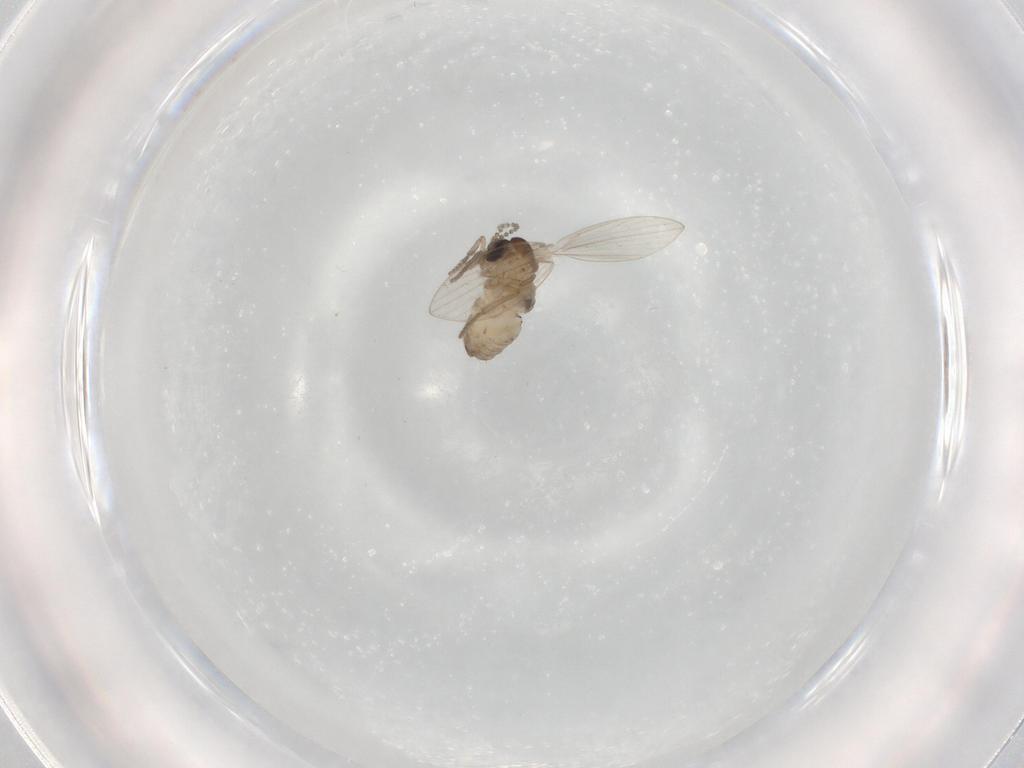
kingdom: Animalia
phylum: Arthropoda
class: Insecta
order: Diptera
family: Psychodidae
